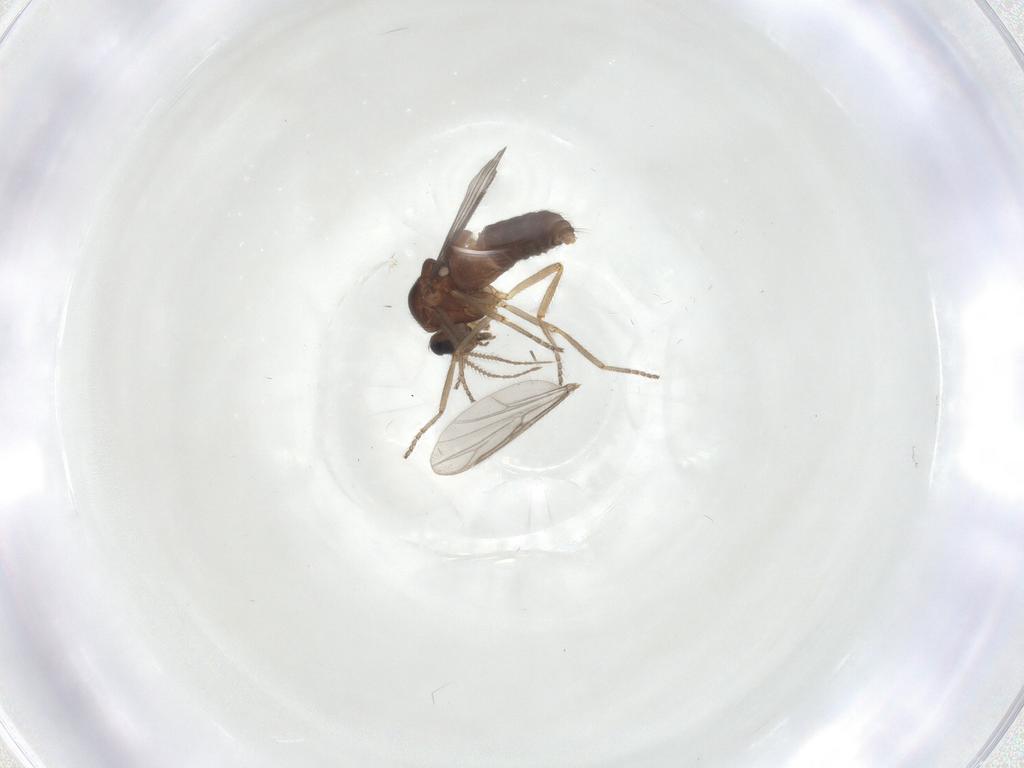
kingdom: Animalia
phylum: Arthropoda
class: Insecta
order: Diptera
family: Ceratopogonidae
